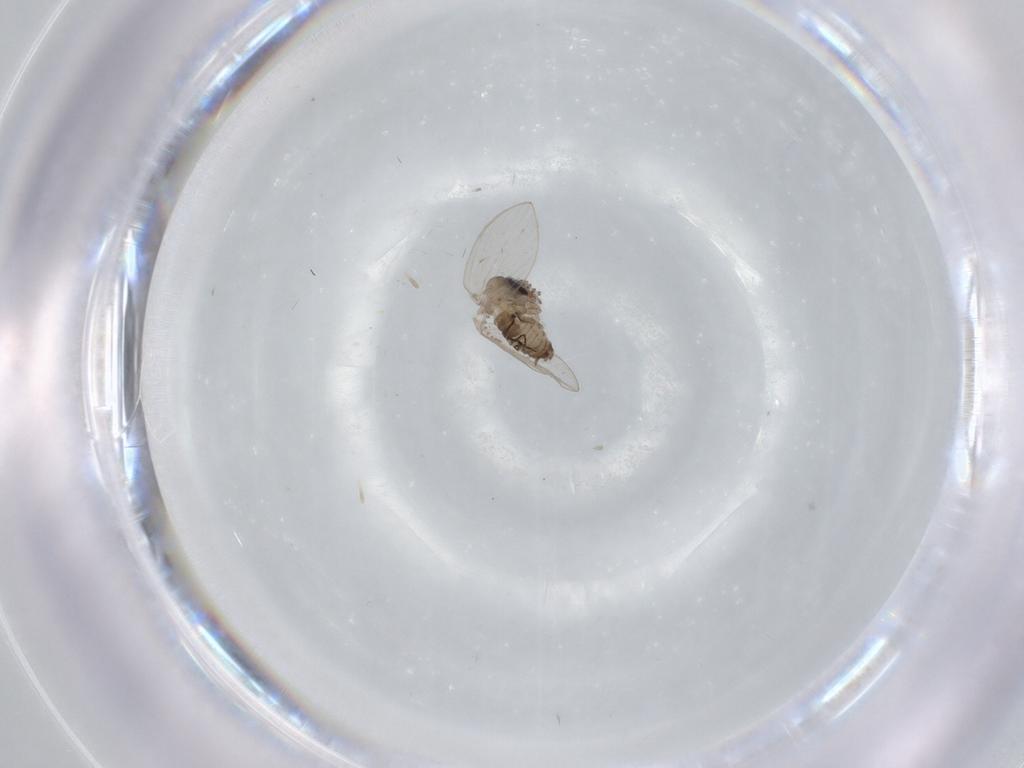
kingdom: Animalia
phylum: Arthropoda
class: Insecta
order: Diptera
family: Psychodidae
